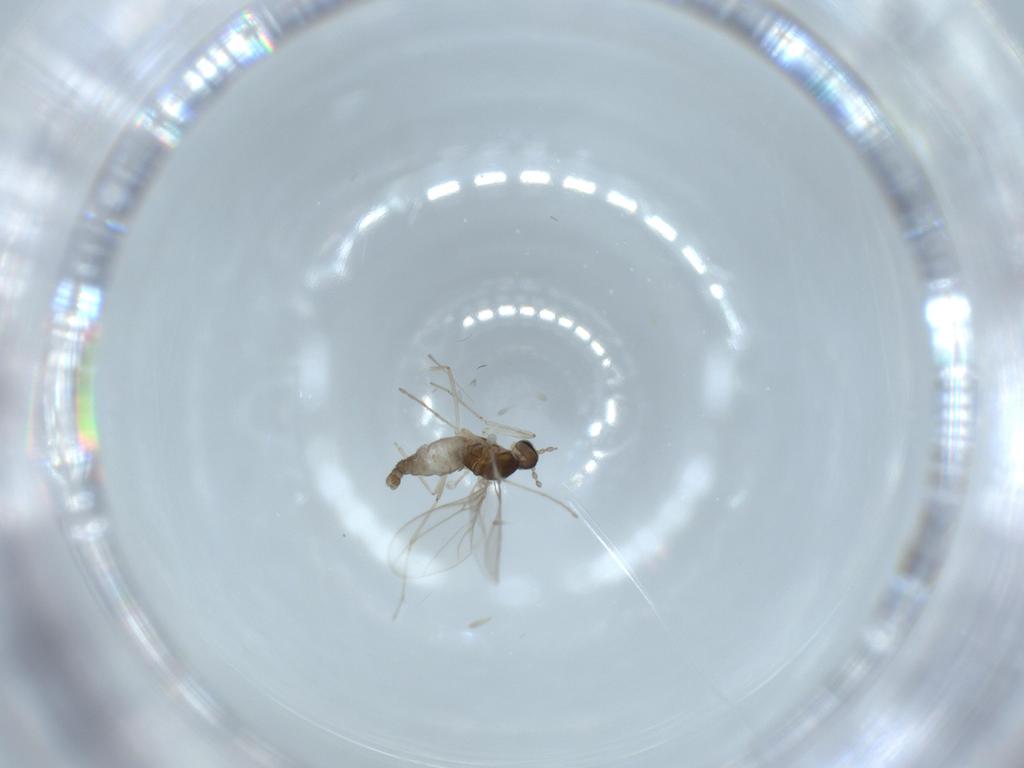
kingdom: Animalia
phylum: Arthropoda
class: Insecta
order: Diptera
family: Cecidomyiidae
